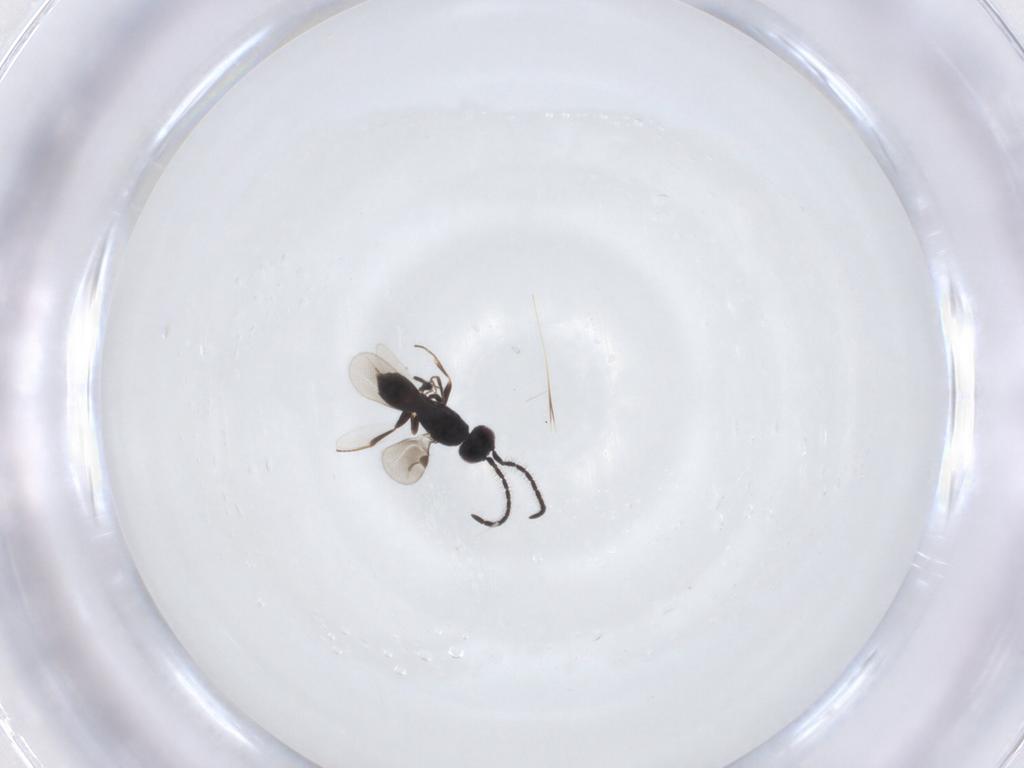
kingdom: Animalia
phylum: Arthropoda
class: Insecta
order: Hymenoptera
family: Megaspilidae
